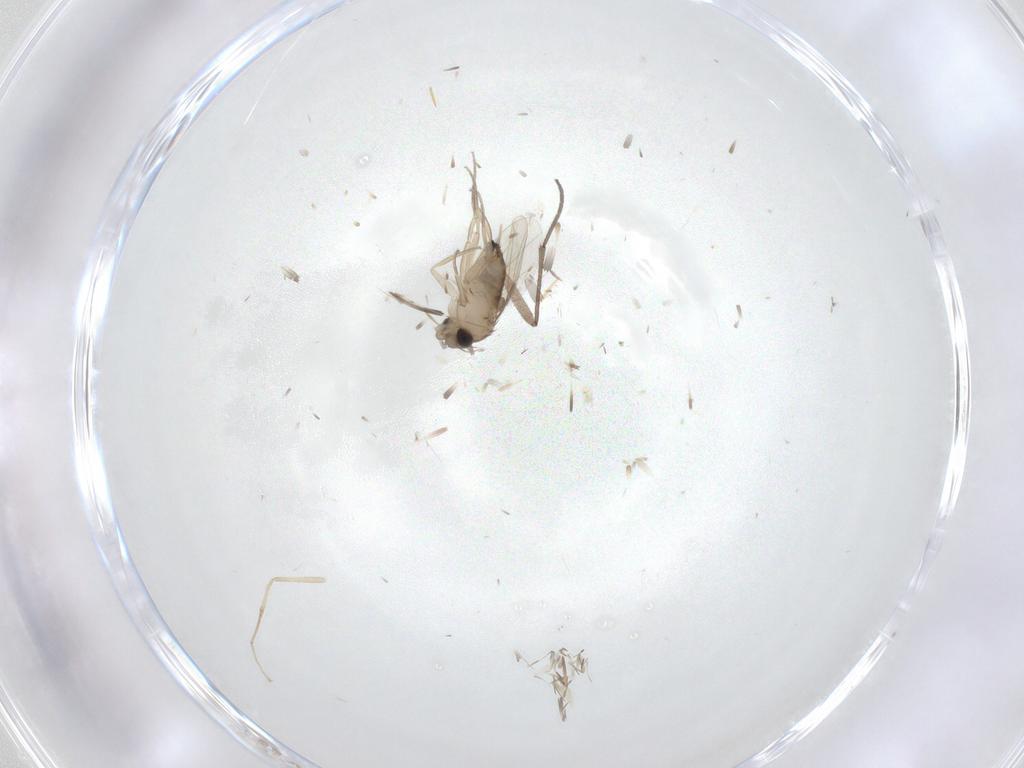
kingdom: Animalia
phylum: Arthropoda
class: Insecta
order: Diptera
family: Phoridae
